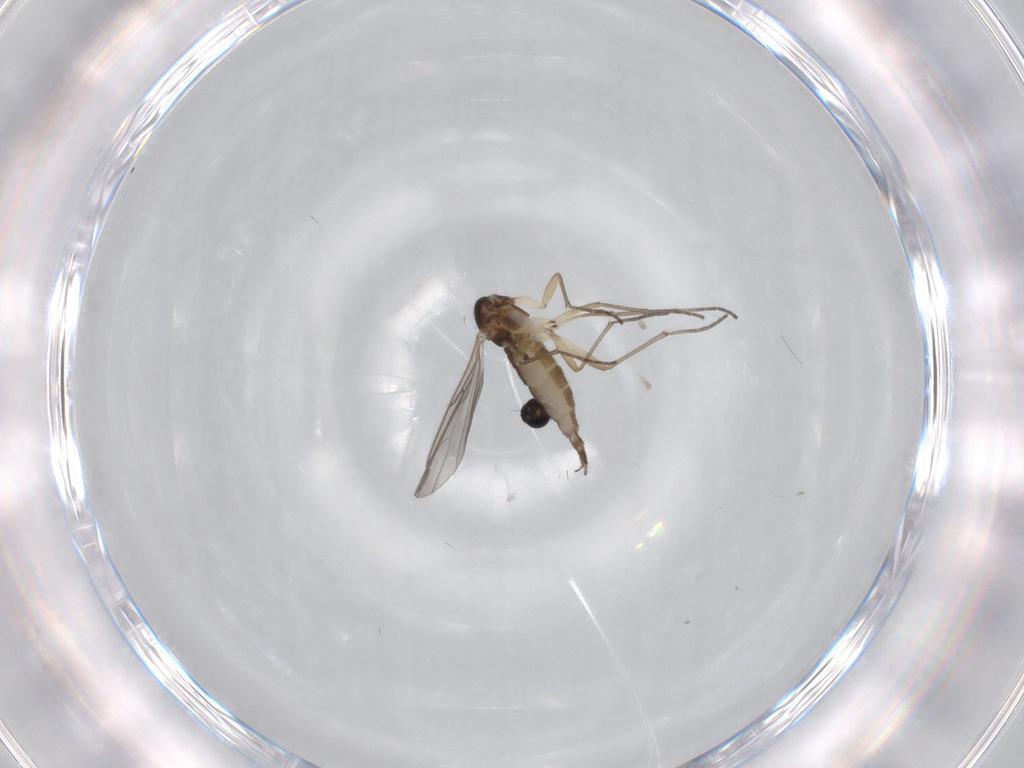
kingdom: Animalia
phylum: Arthropoda
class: Insecta
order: Diptera
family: Sciaridae
